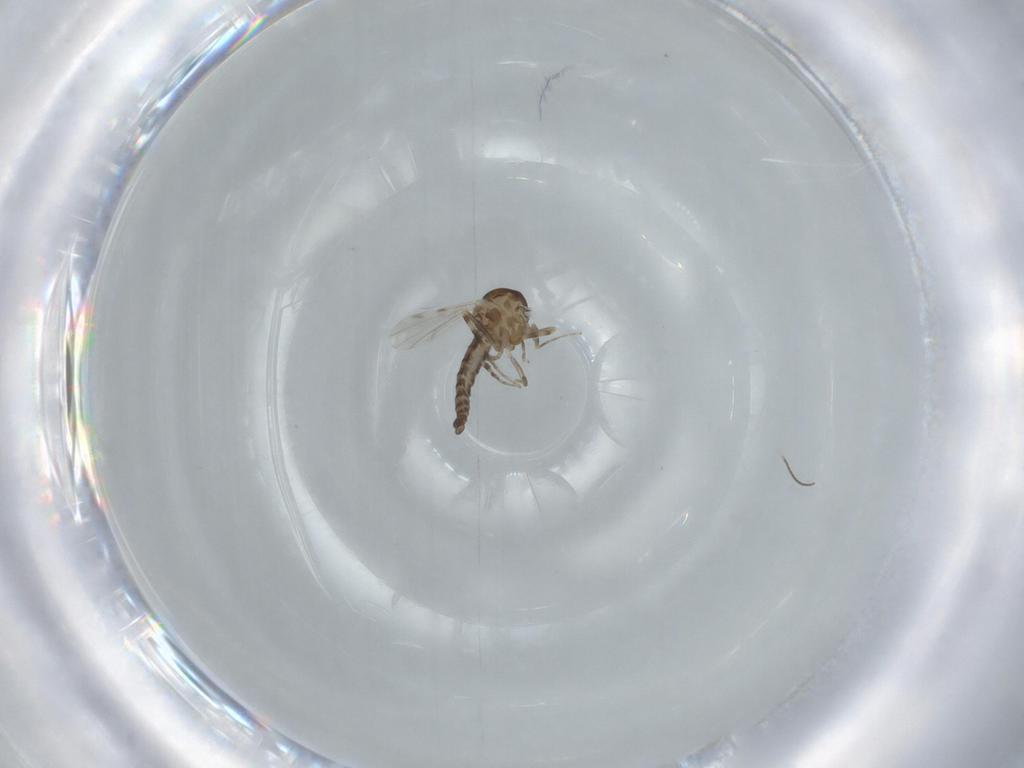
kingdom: Animalia
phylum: Arthropoda
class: Insecta
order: Diptera
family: Ceratopogonidae
